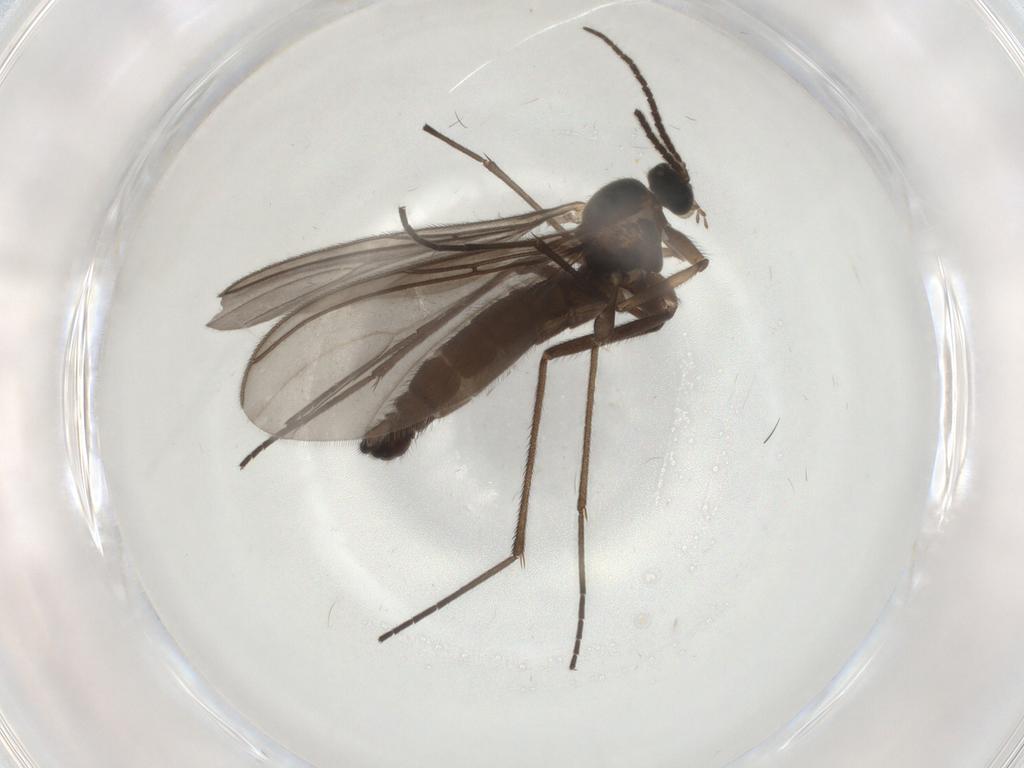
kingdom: Animalia
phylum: Arthropoda
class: Insecta
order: Diptera
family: Sciaridae
